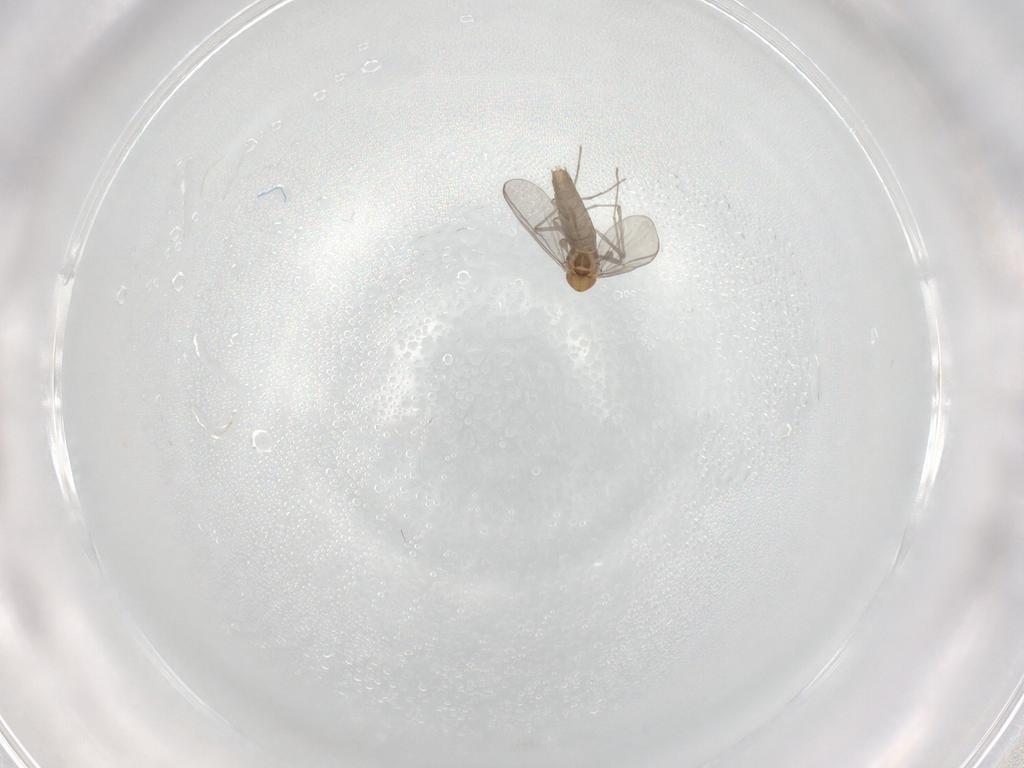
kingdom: Animalia
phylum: Arthropoda
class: Insecta
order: Diptera
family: Chironomidae
